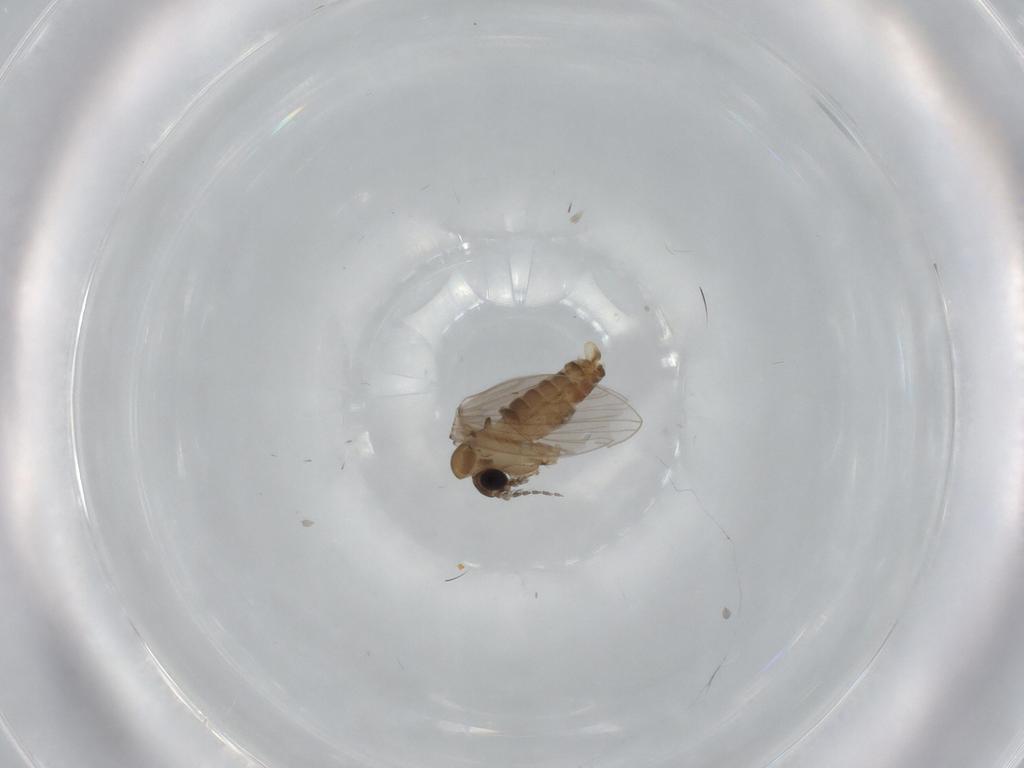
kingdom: Animalia
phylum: Arthropoda
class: Insecta
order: Diptera
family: Psychodidae
